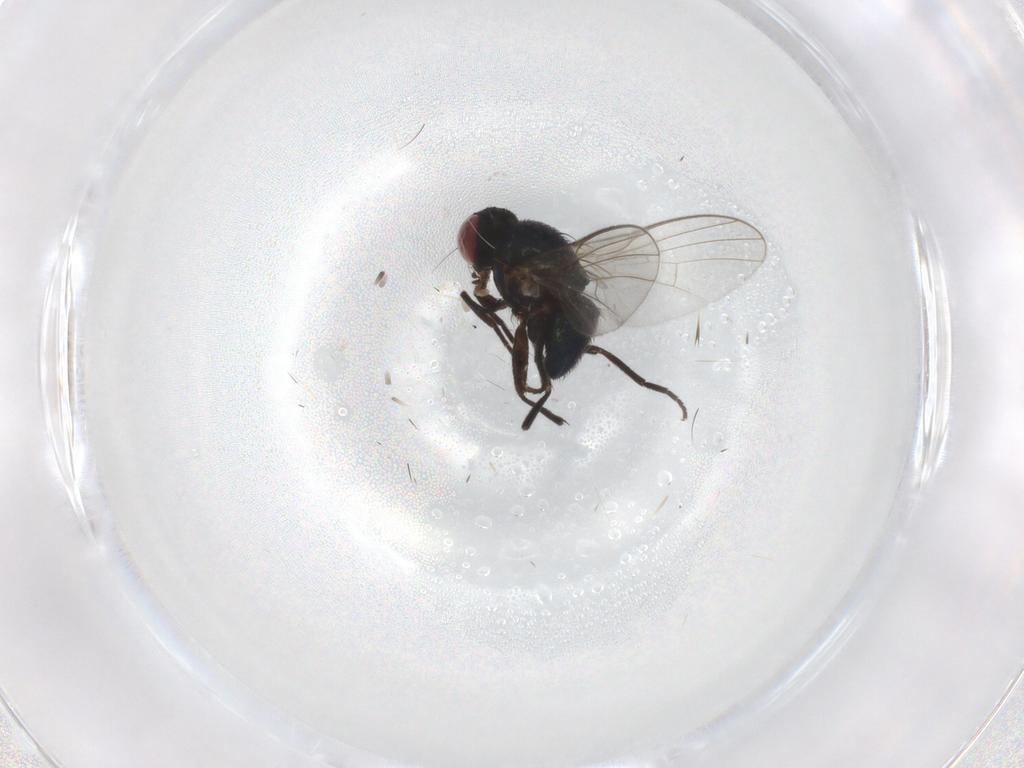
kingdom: Animalia
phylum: Arthropoda
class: Insecta
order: Diptera
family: Agromyzidae
